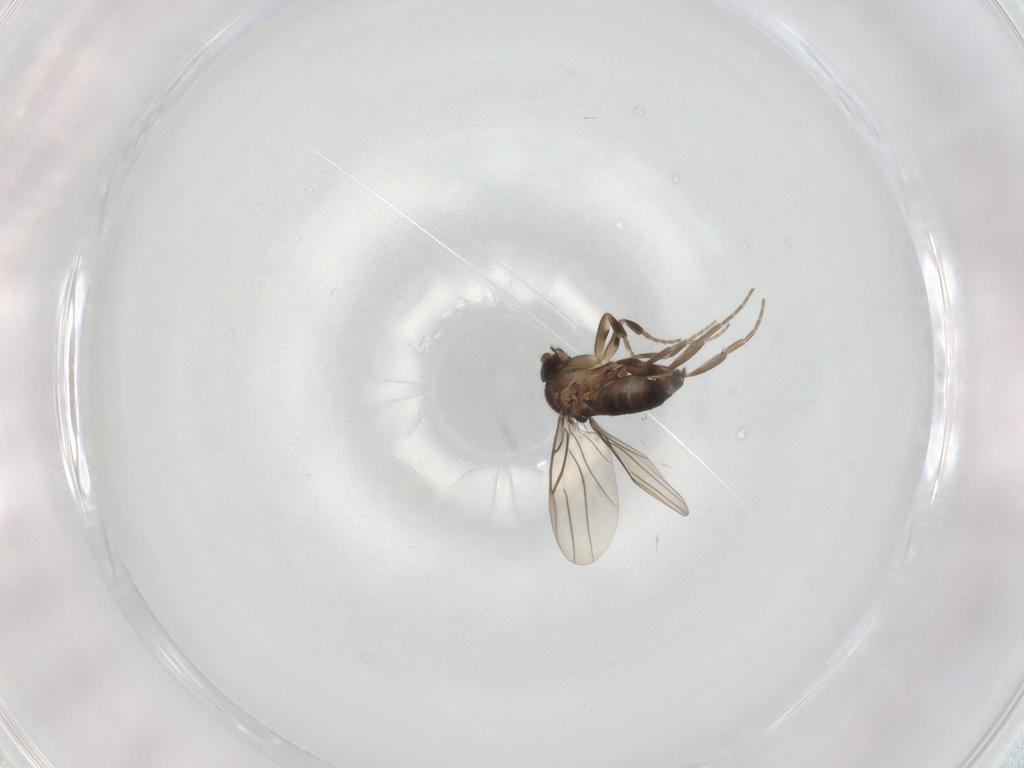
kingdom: Animalia
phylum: Arthropoda
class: Insecta
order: Diptera
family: Phoridae
